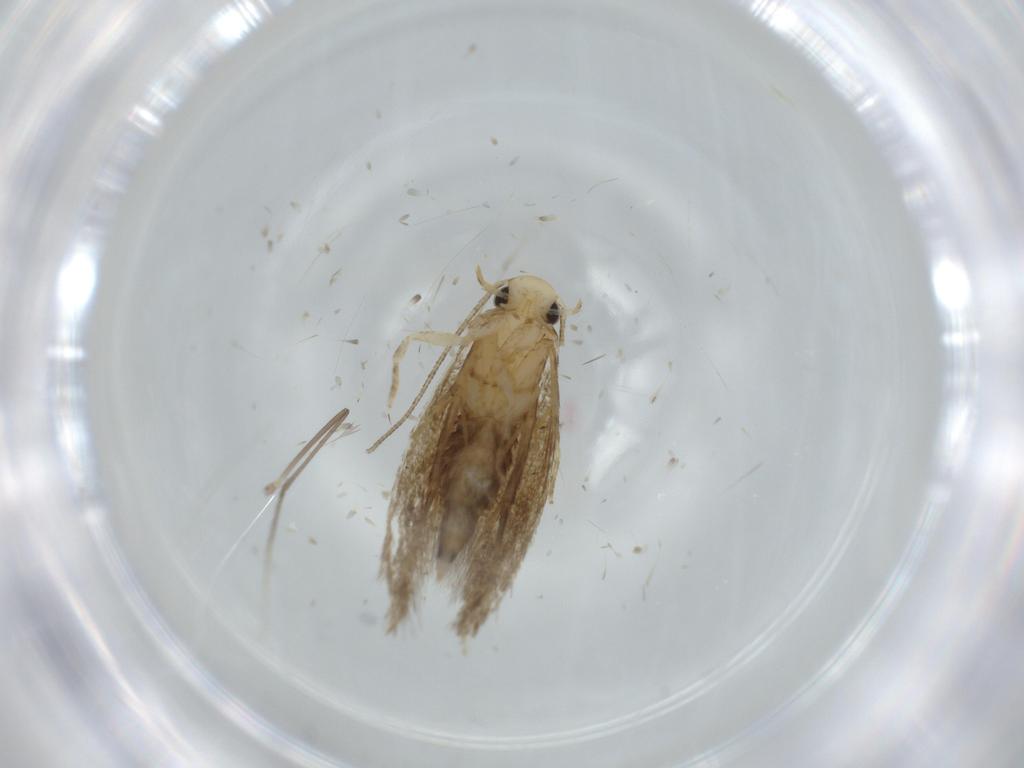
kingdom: Animalia
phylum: Arthropoda
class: Insecta
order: Lepidoptera
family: Tineidae
